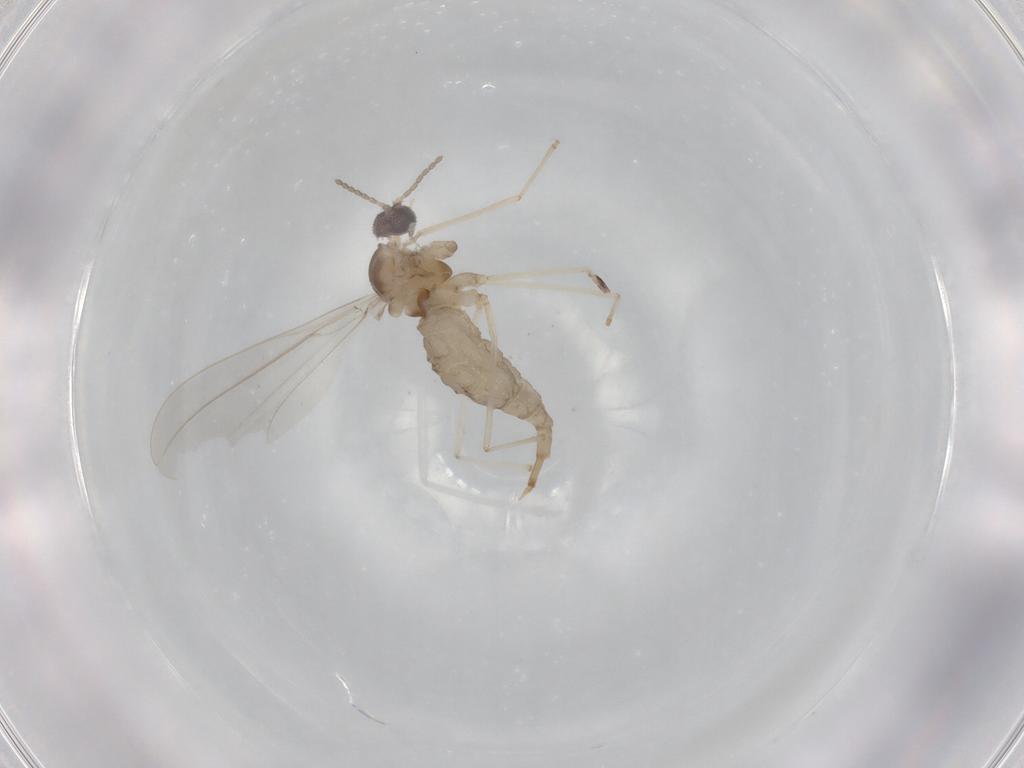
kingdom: Animalia
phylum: Arthropoda
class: Insecta
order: Diptera
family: Cecidomyiidae
